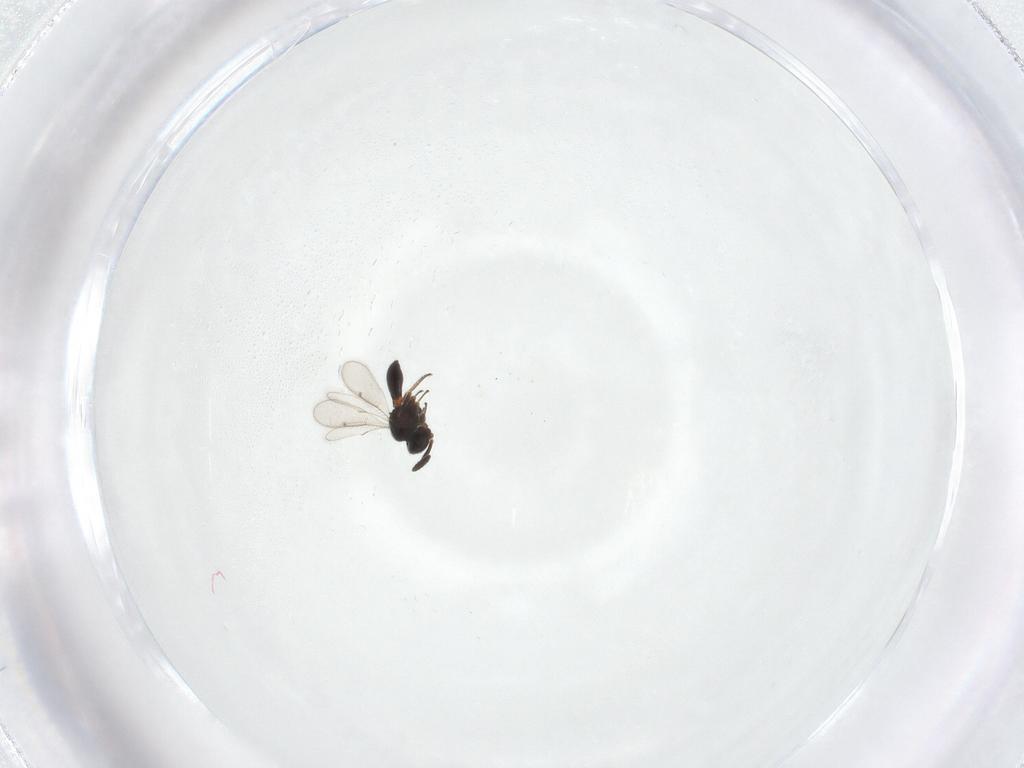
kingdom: Animalia
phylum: Arthropoda
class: Insecta
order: Hymenoptera
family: Scelionidae
